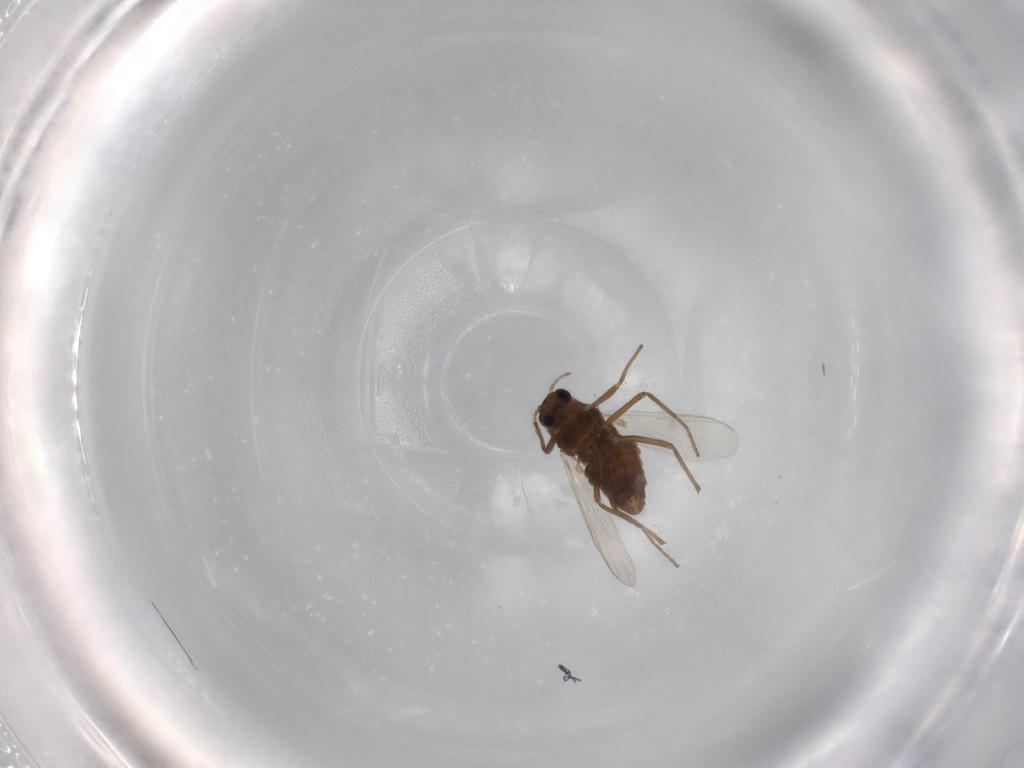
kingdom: Animalia
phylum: Arthropoda
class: Insecta
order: Diptera
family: Chironomidae
